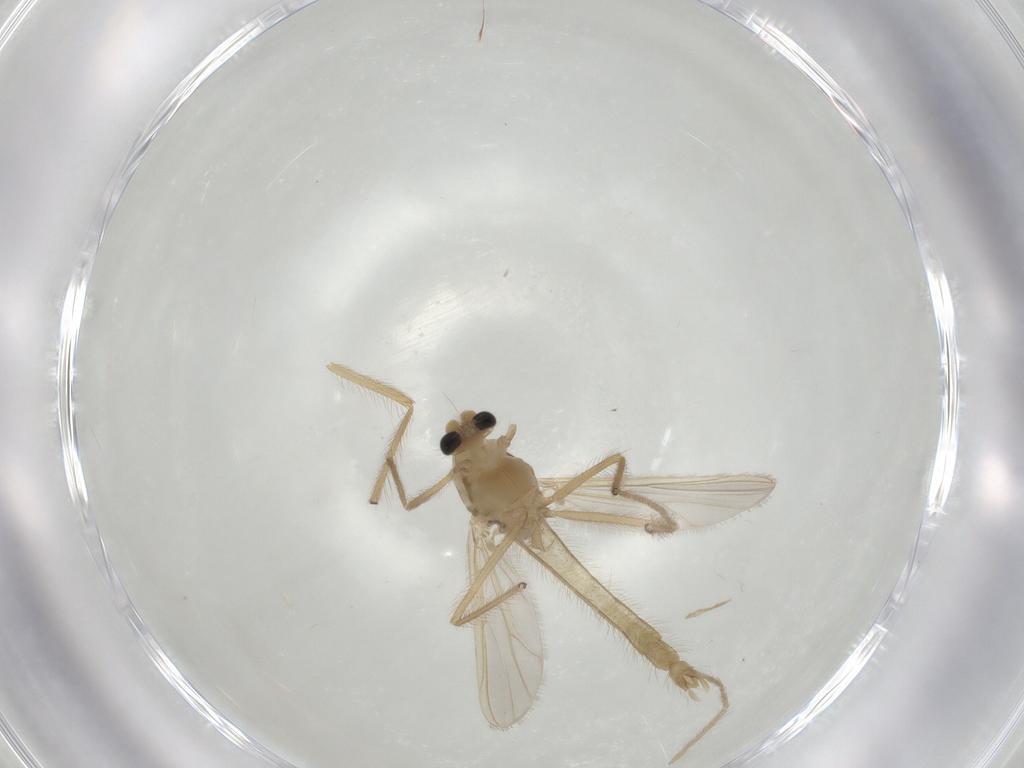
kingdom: Animalia
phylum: Arthropoda
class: Insecta
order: Diptera
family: Chironomidae
